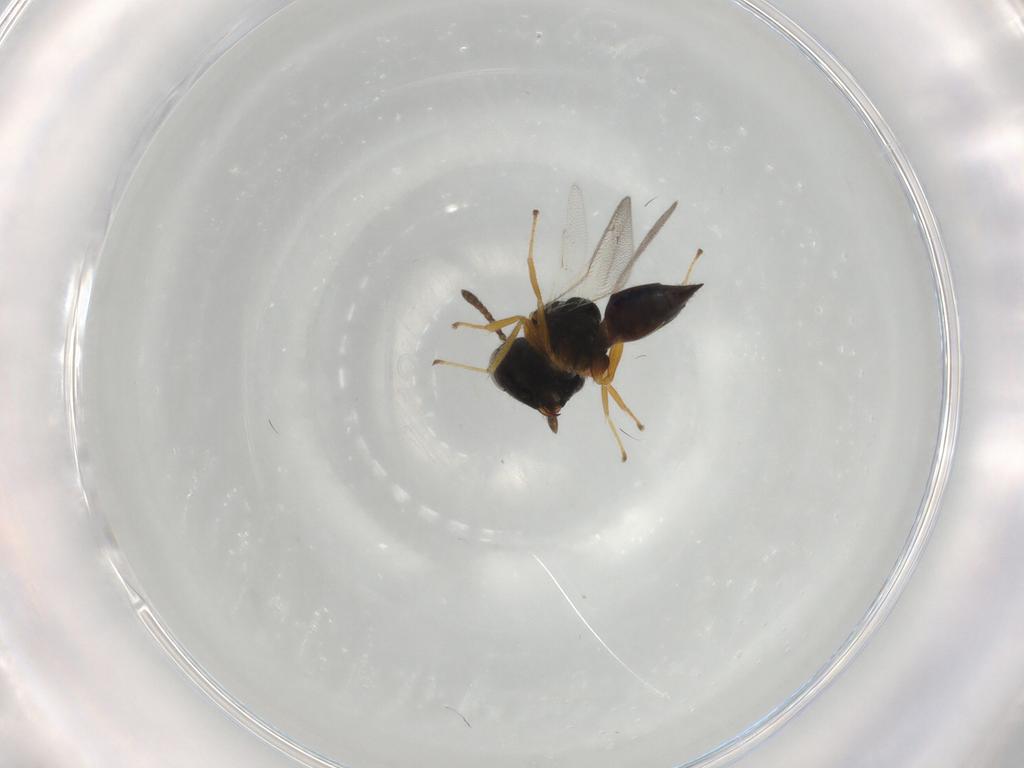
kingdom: Animalia
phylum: Arthropoda
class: Insecta
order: Hymenoptera
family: Pteromalidae
